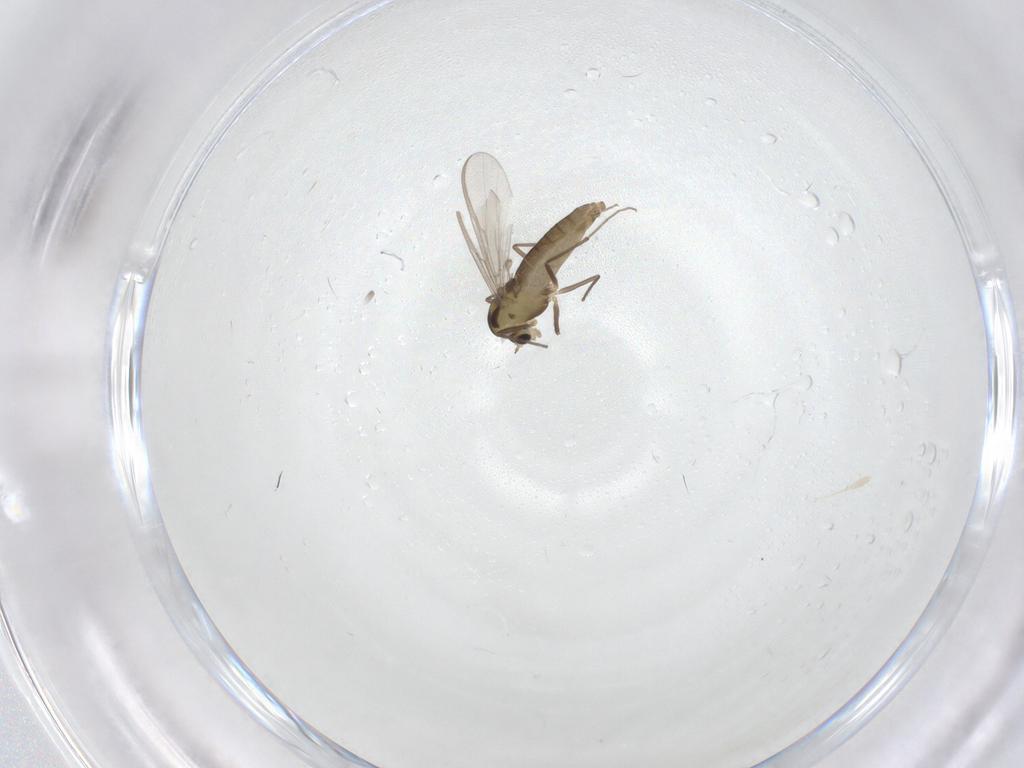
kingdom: Animalia
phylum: Arthropoda
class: Insecta
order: Diptera
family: Chironomidae
